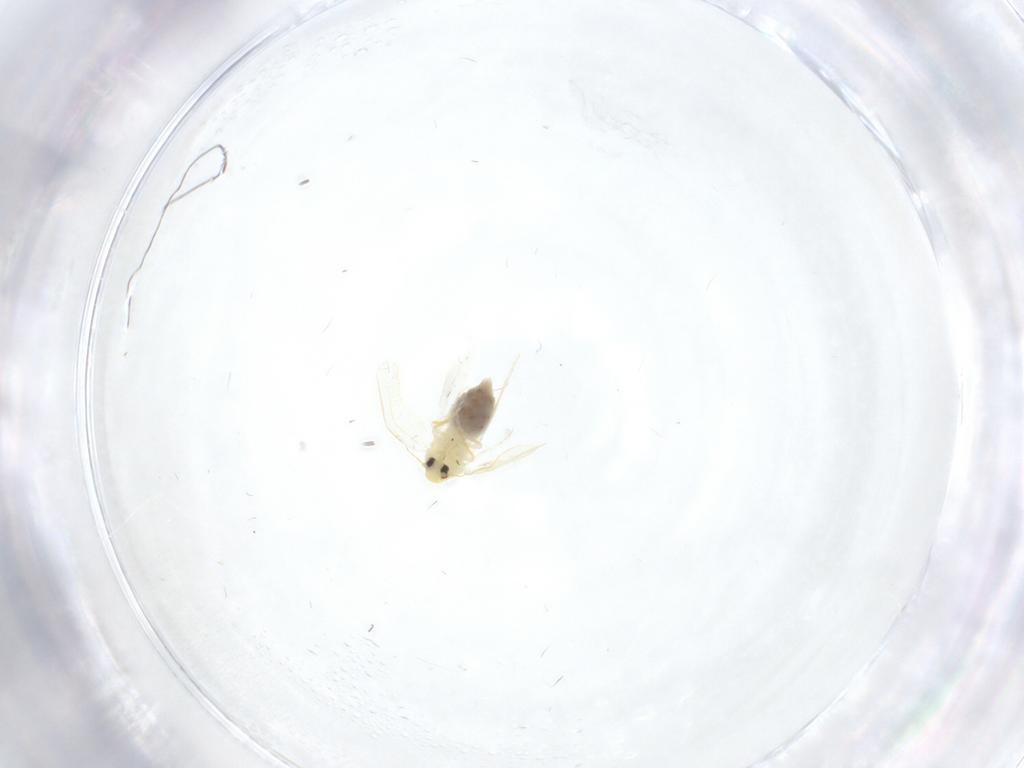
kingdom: Animalia
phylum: Arthropoda
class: Insecta
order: Hemiptera
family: Aleyrodidae
